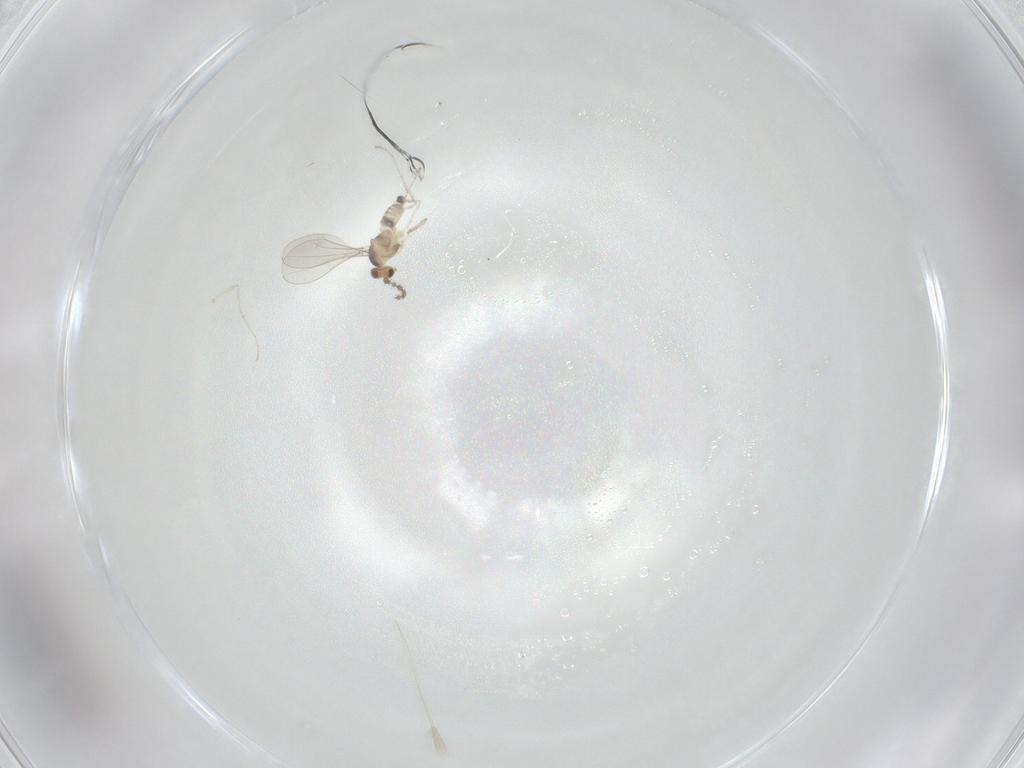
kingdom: Animalia
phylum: Arthropoda
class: Insecta
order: Diptera
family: Cecidomyiidae
